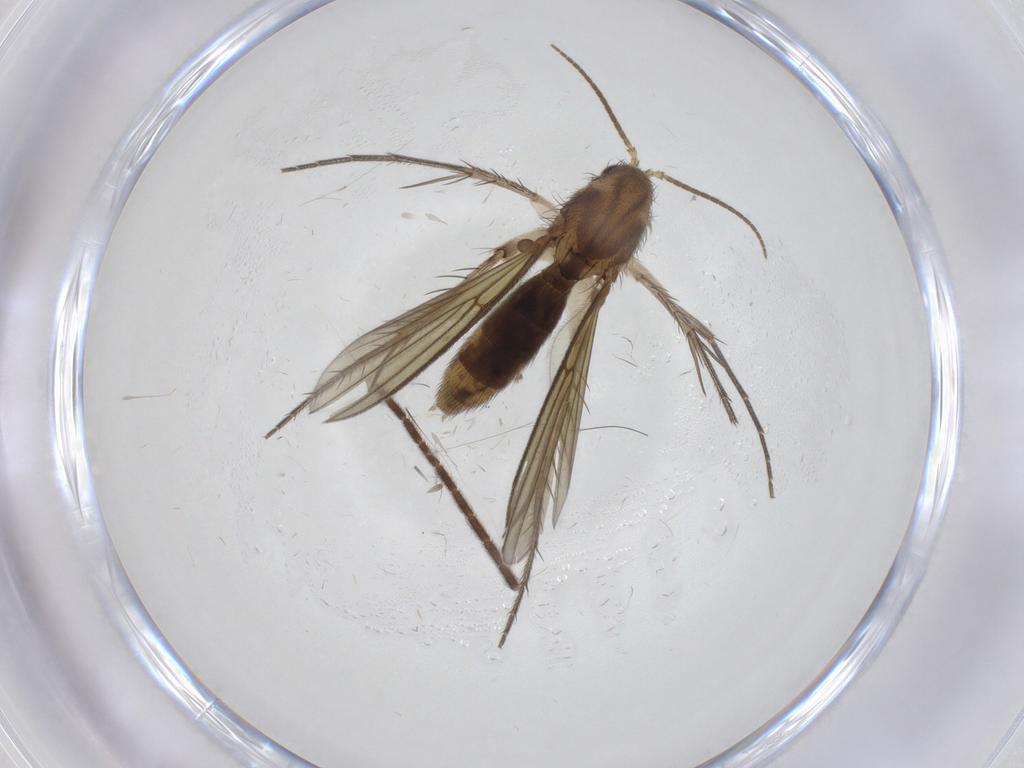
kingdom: Animalia
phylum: Arthropoda
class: Insecta
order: Diptera
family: Mycetophilidae
